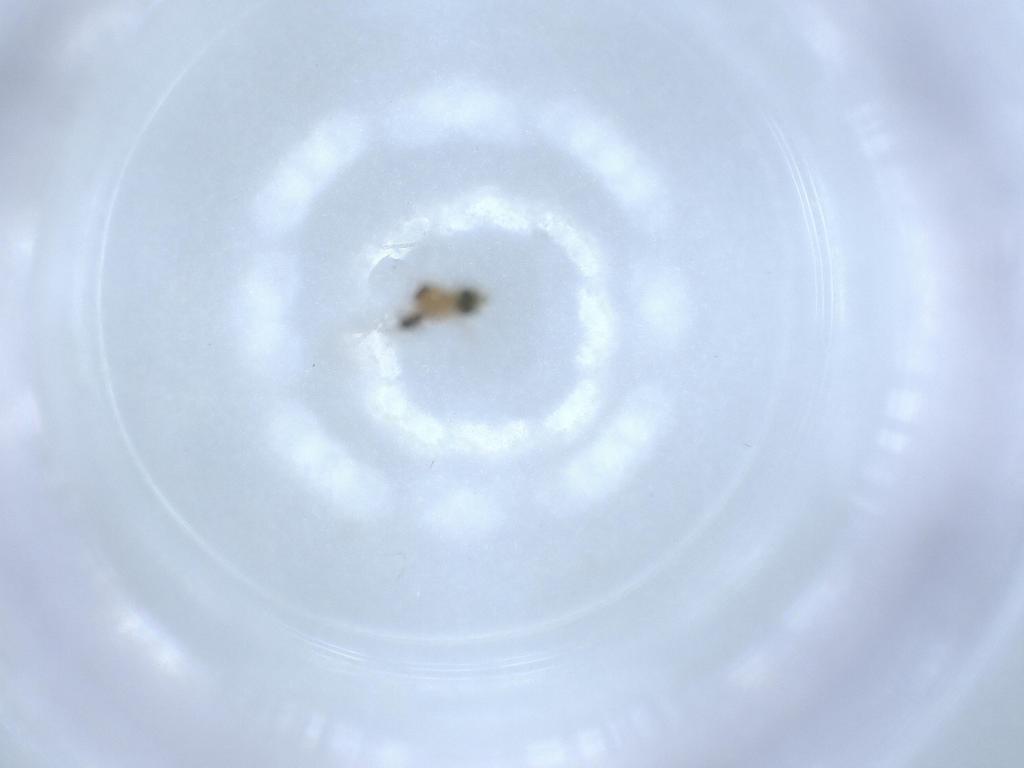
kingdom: Animalia
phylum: Arthropoda
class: Insecta
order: Diptera
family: Cecidomyiidae
